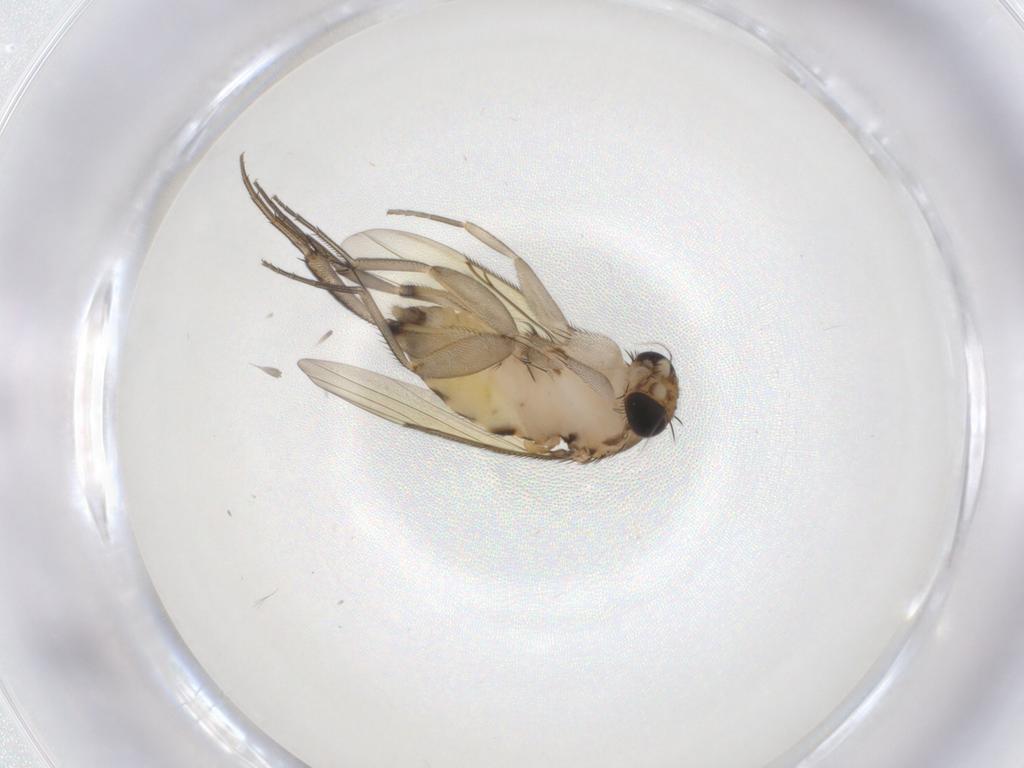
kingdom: Animalia
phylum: Arthropoda
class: Insecta
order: Diptera
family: Phoridae
